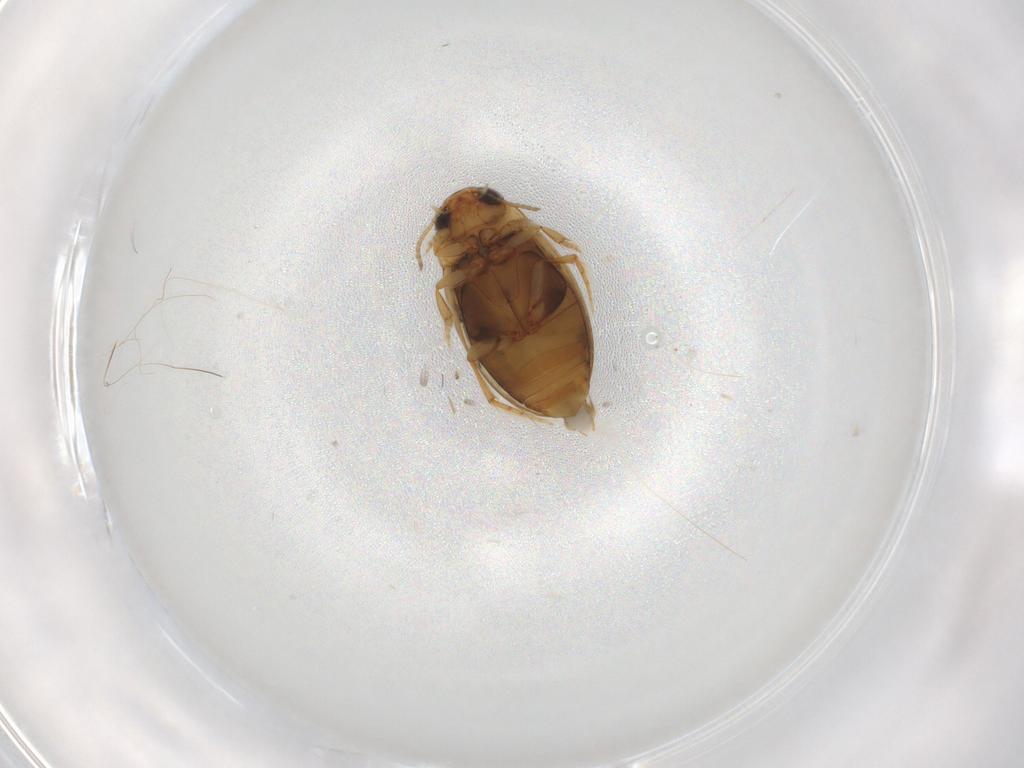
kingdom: Animalia
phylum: Arthropoda
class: Insecta
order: Coleoptera
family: Dytiscidae
